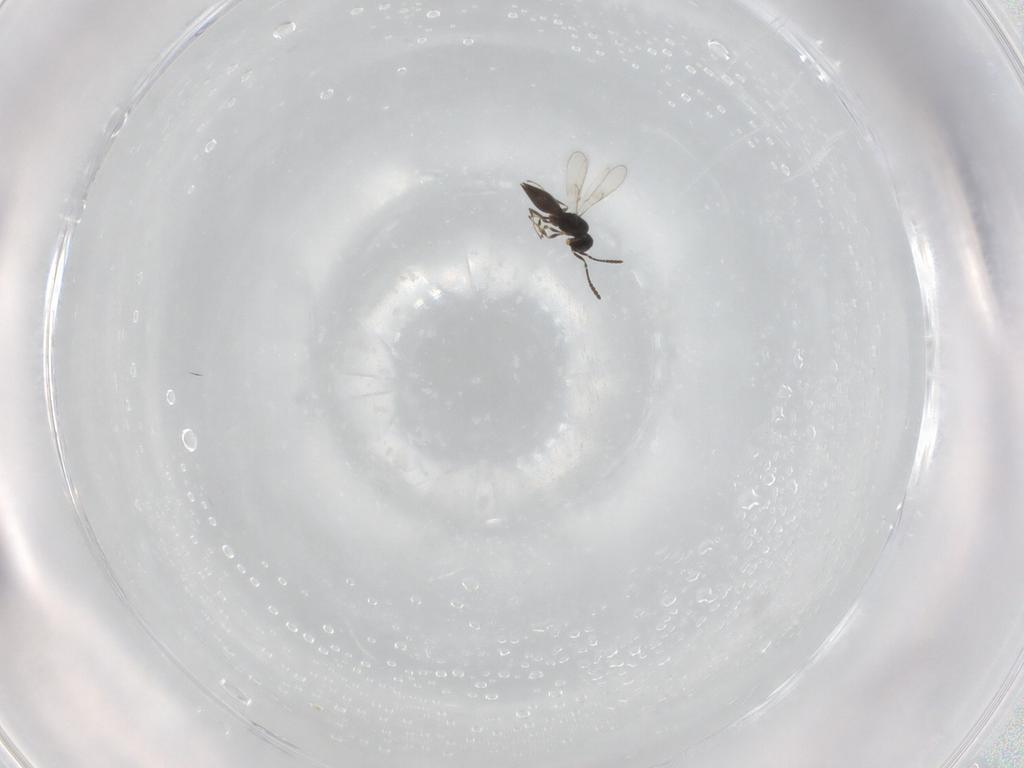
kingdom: Animalia
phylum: Arthropoda
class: Insecta
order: Hymenoptera
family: Scelionidae
